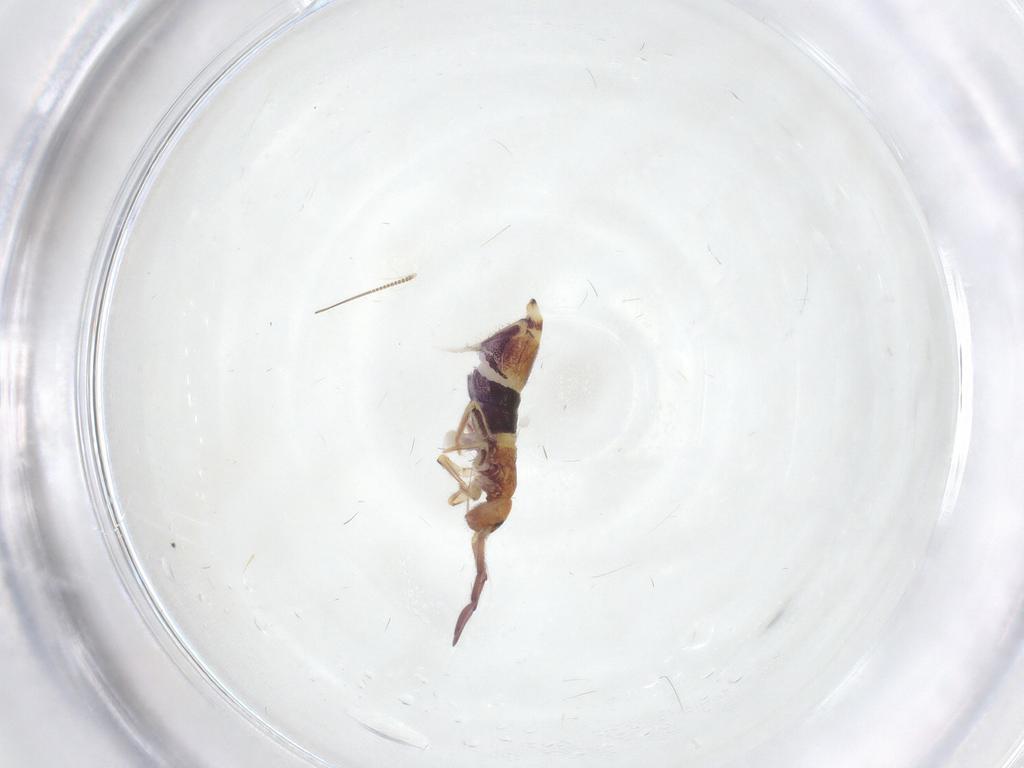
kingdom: Animalia
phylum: Arthropoda
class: Collembola
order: Entomobryomorpha
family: Entomobryidae
